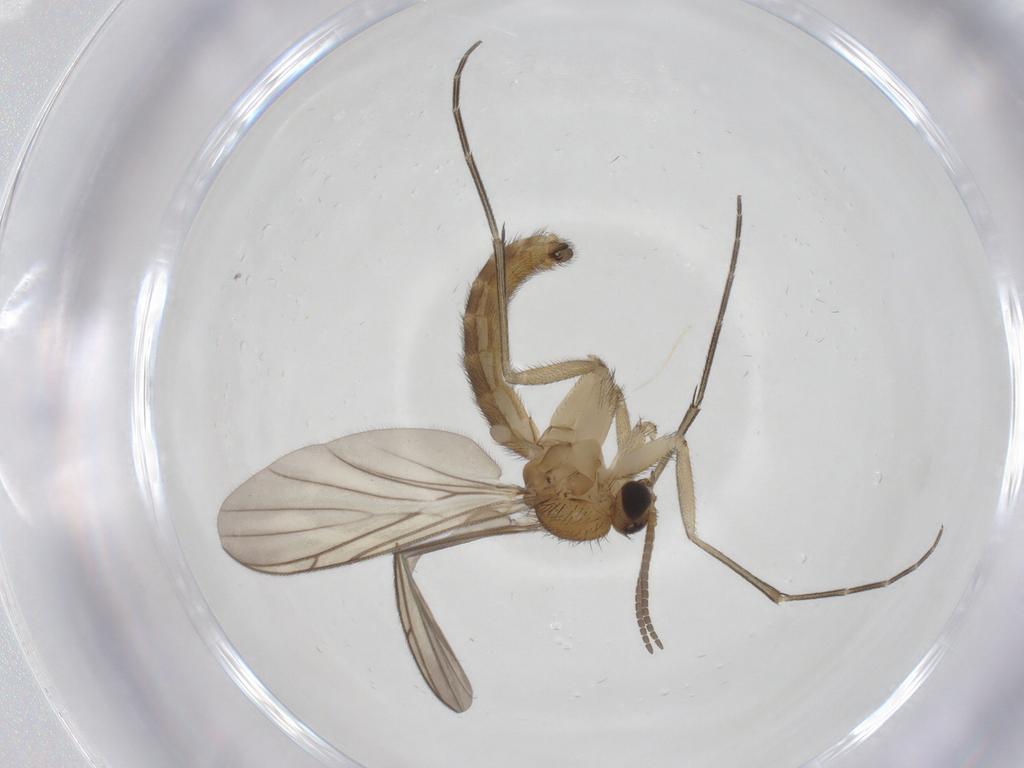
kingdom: Animalia
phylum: Arthropoda
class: Insecta
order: Diptera
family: Keroplatidae
